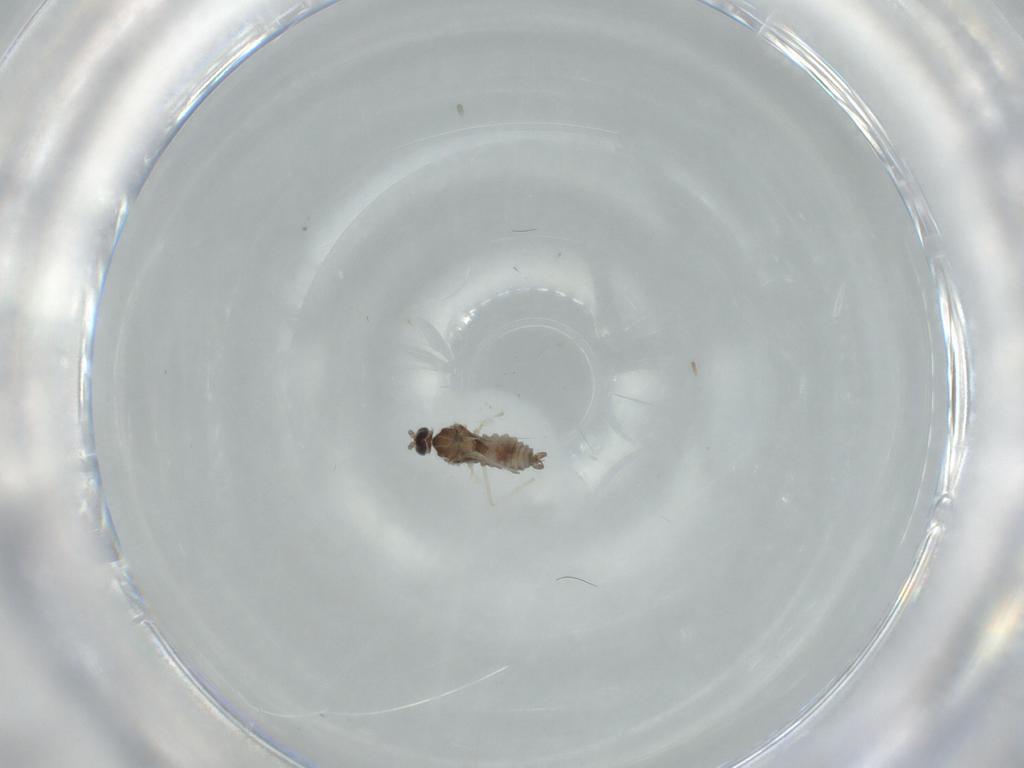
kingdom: Animalia
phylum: Arthropoda
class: Insecta
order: Diptera
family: Cecidomyiidae
